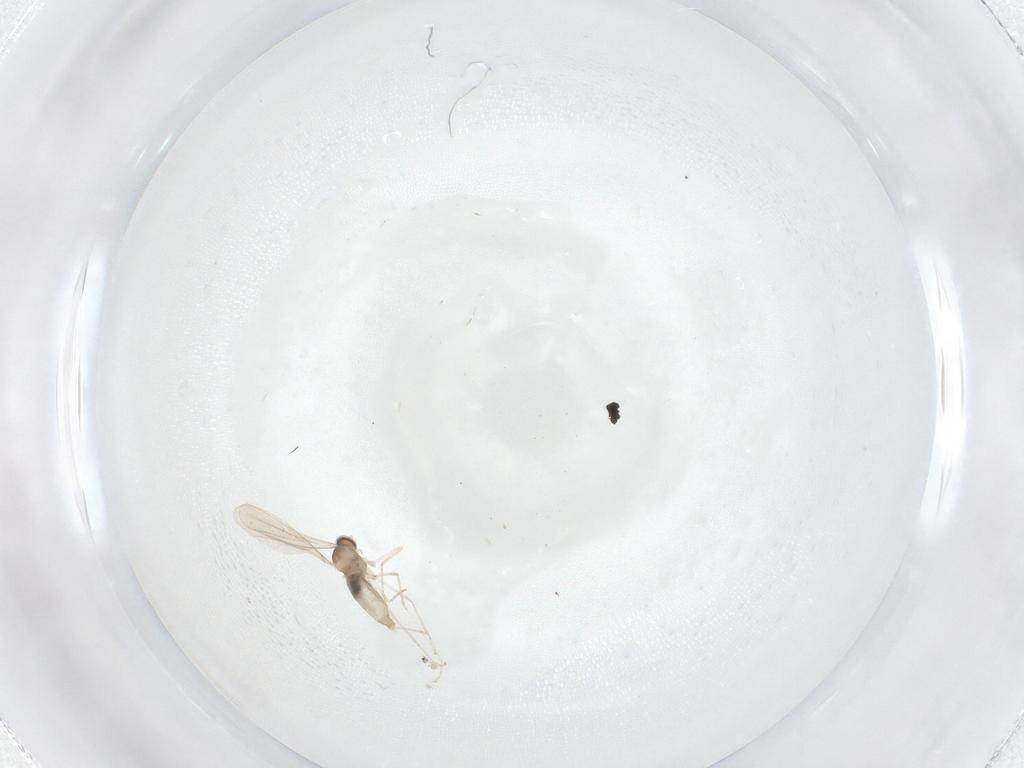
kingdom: Animalia
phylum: Arthropoda
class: Insecta
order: Diptera
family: Cecidomyiidae
